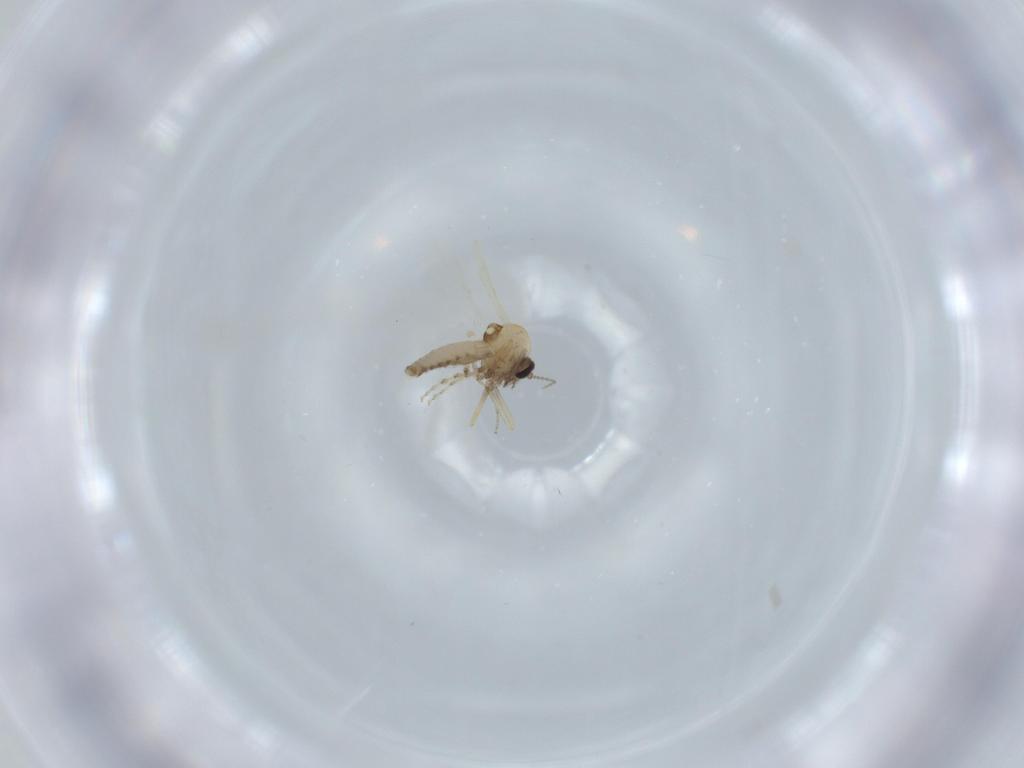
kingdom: Animalia
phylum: Arthropoda
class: Insecta
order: Diptera
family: Ceratopogonidae
